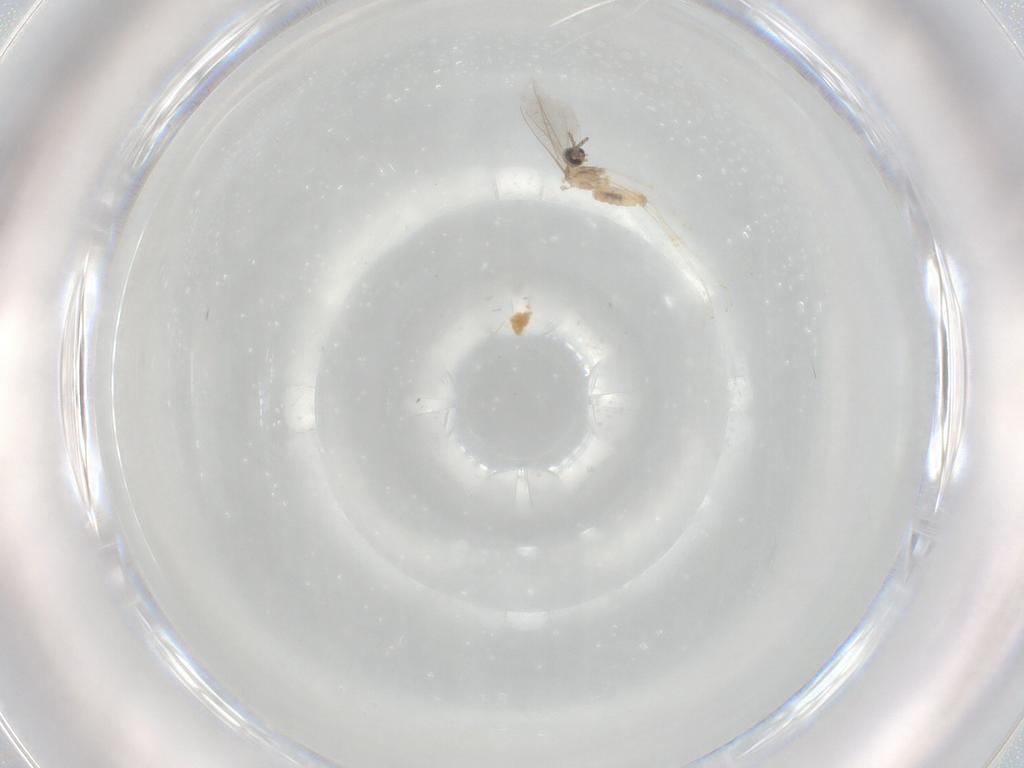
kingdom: Animalia
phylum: Arthropoda
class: Insecta
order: Diptera
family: Cecidomyiidae
